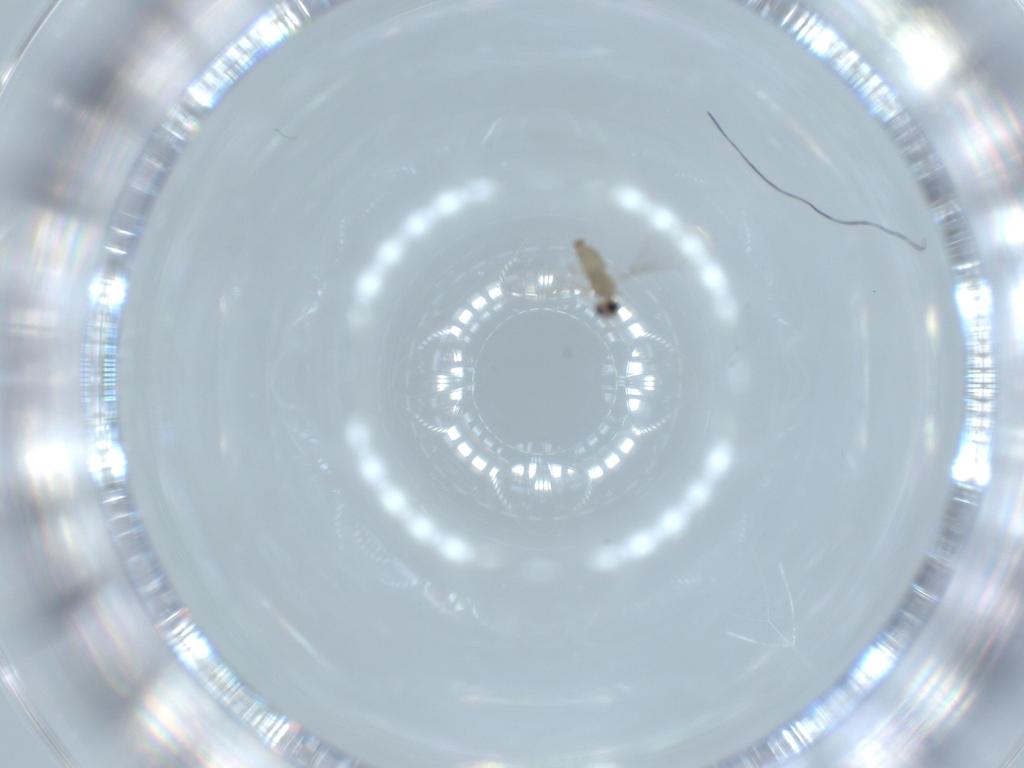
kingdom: Animalia
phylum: Arthropoda
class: Insecta
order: Diptera
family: Cecidomyiidae
